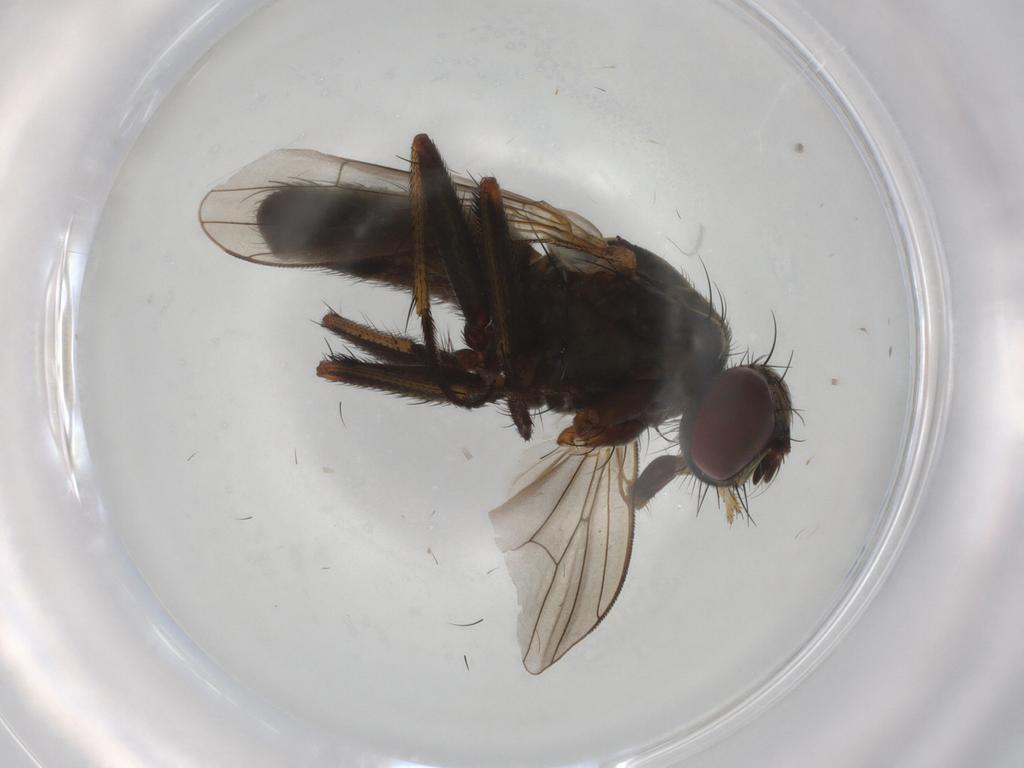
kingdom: Animalia
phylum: Arthropoda
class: Insecta
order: Diptera
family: Muscidae
